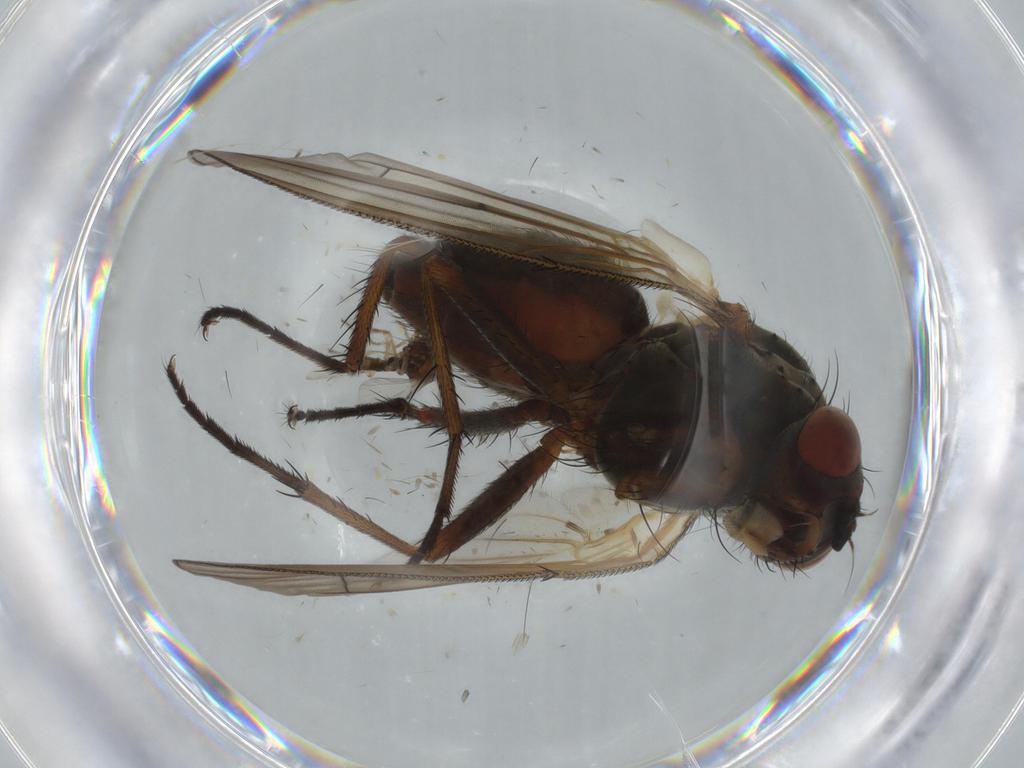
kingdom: Animalia
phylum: Arthropoda
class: Insecta
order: Diptera
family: Anthomyiidae
